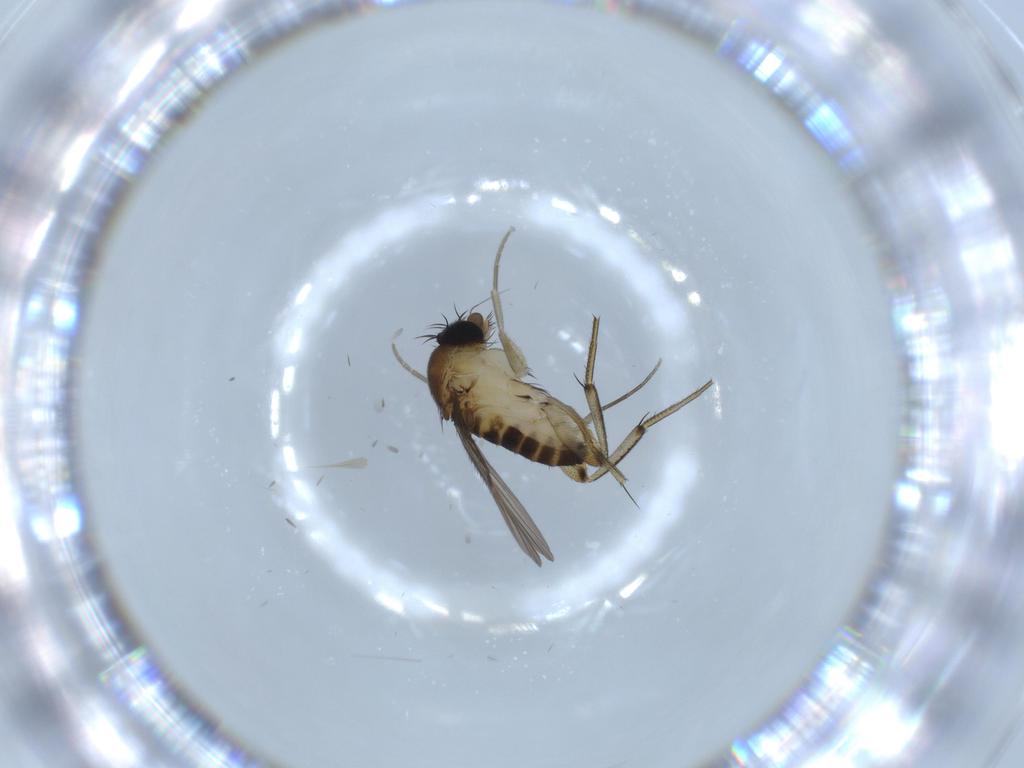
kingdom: Animalia
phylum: Arthropoda
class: Insecta
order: Diptera
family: Phoridae
